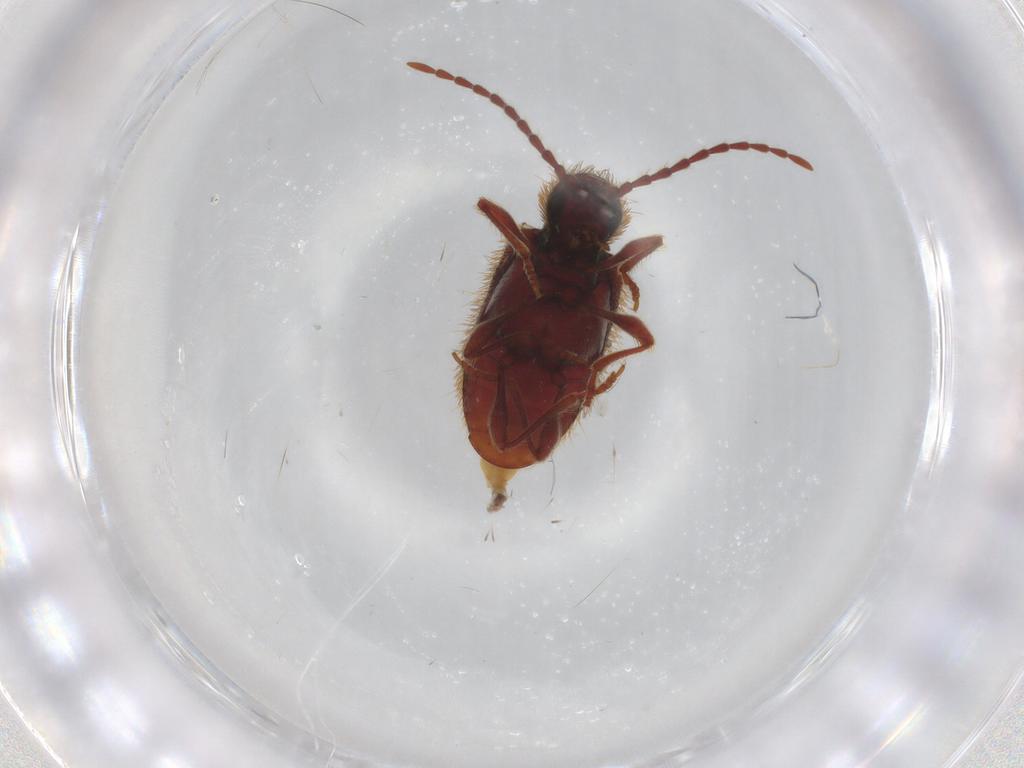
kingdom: Animalia
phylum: Arthropoda
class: Insecta
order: Coleoptera
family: Ptinidae
